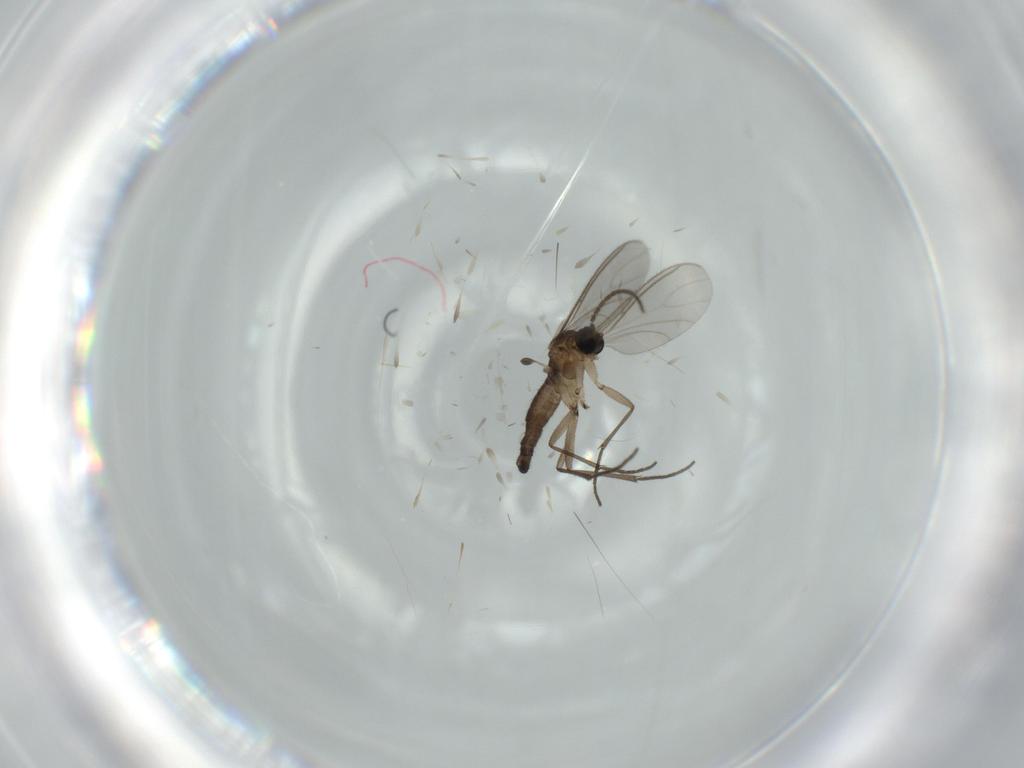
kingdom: Animalia
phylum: Arthropoda
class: Insecta
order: Diptera
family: Sciaridae
